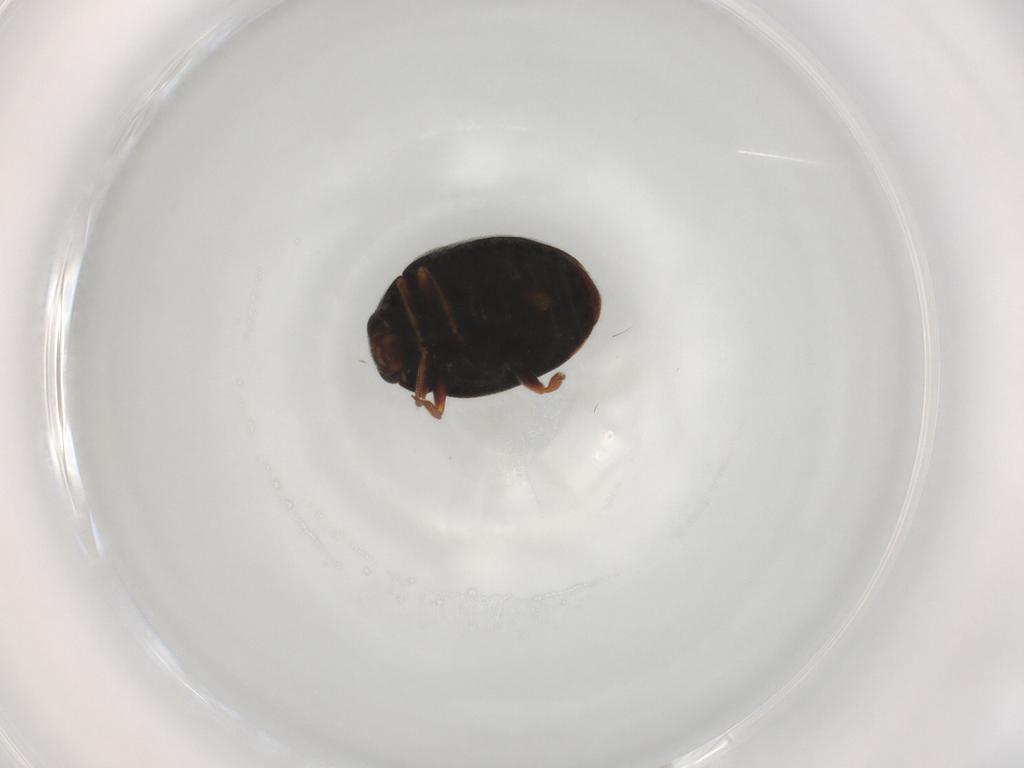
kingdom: Animalia
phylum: Arthropoda
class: Insecta
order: Coleoptera
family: Coccinellidae
